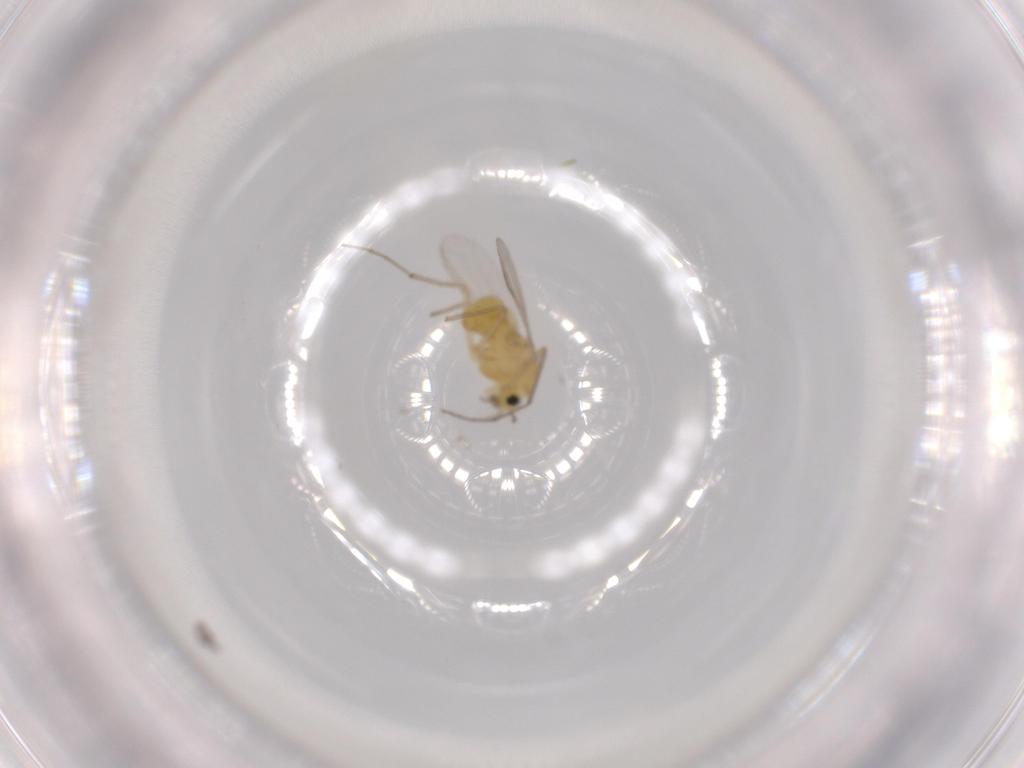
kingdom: Animalia
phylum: Arthropoda
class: Insecta
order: Diptera
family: Chironomidae
